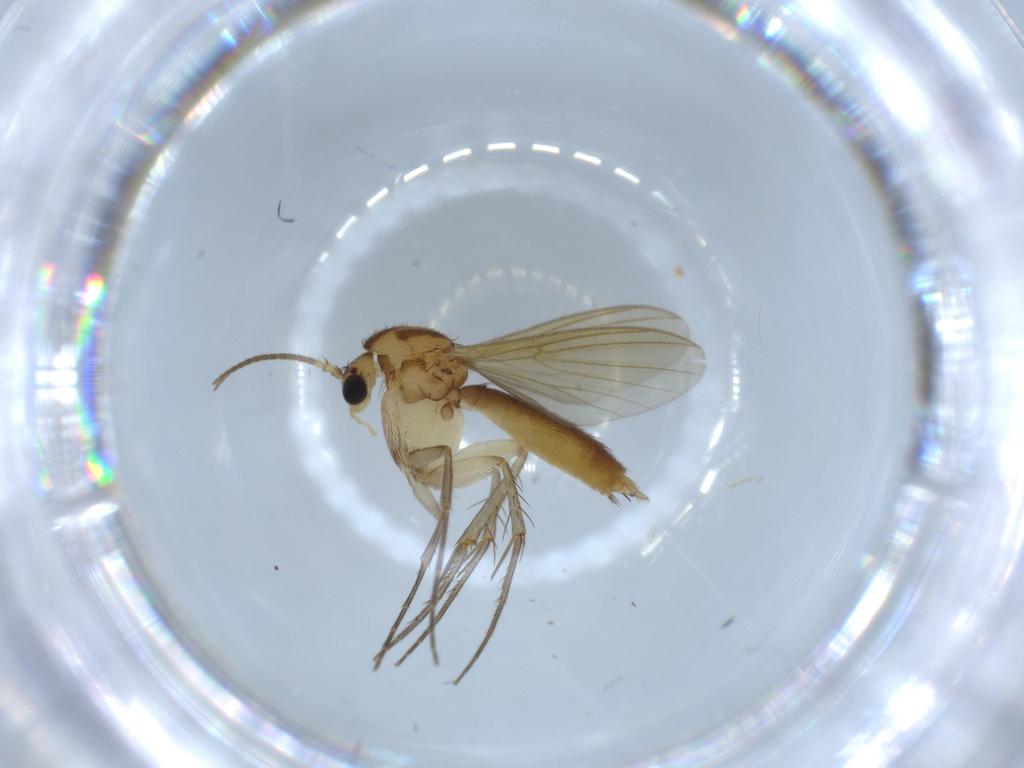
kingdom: Animalia
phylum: Arthropoda
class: Insecta
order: Diptera
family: Mycetophilidae
